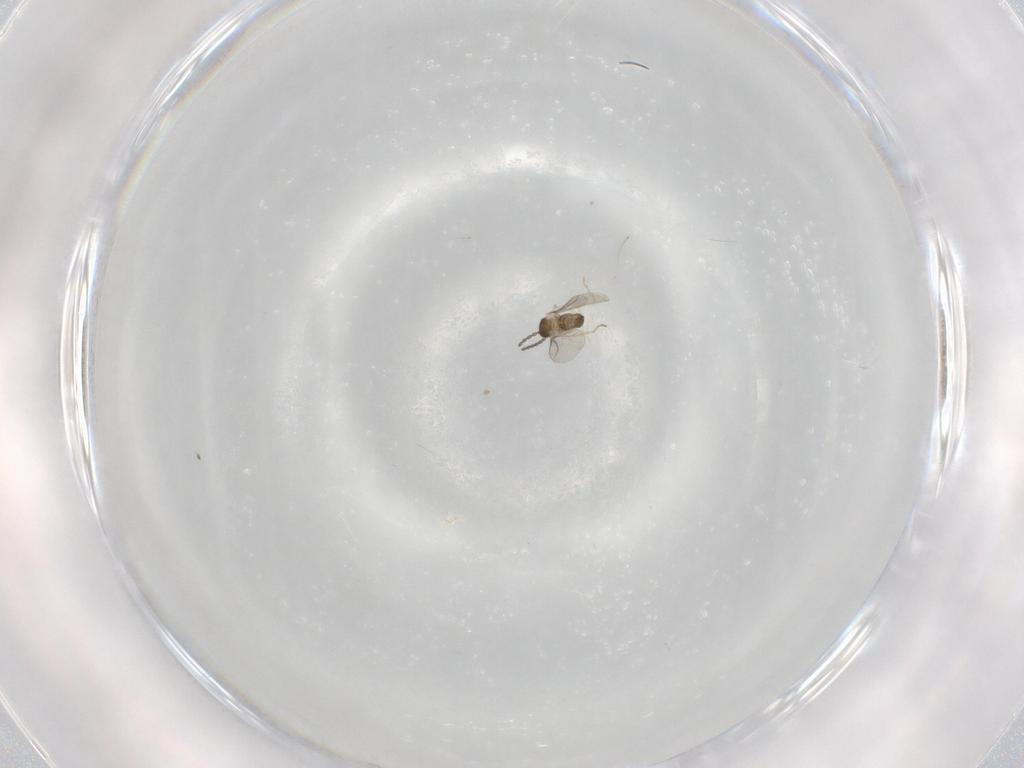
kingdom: Animalia
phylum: Arthropoda
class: Insecta
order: Diptera
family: Cecidomyiidae
